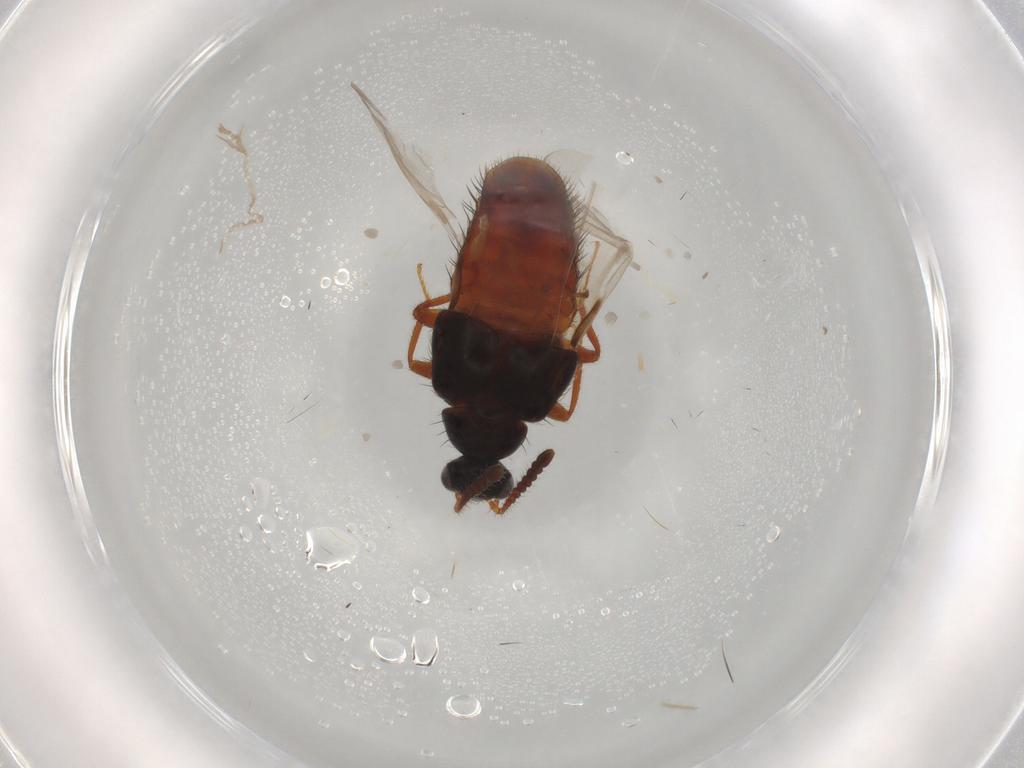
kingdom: Animalia
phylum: Arthropoda
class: Insecta
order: Coleoptera
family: Staphylinidae
